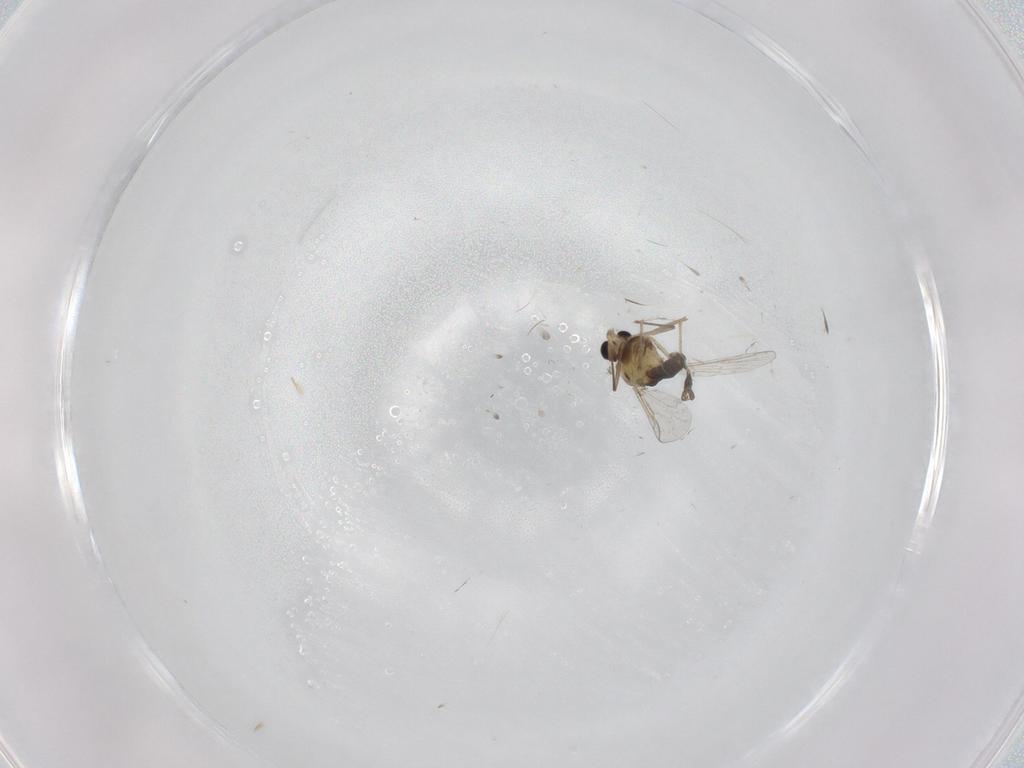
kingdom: Animalia
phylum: Arthropoda
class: Insecta
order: Diptera
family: Chironomidae
